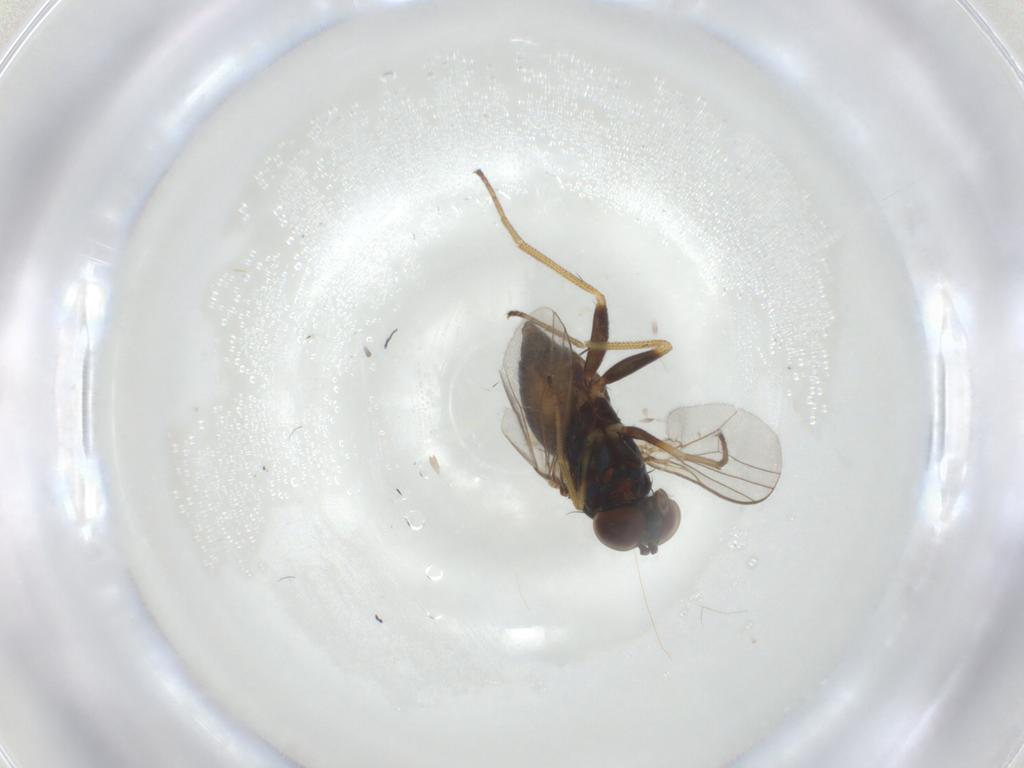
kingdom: Animalia
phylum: Arthropoda
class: Insecta
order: Diptera
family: Dolichopodidae
